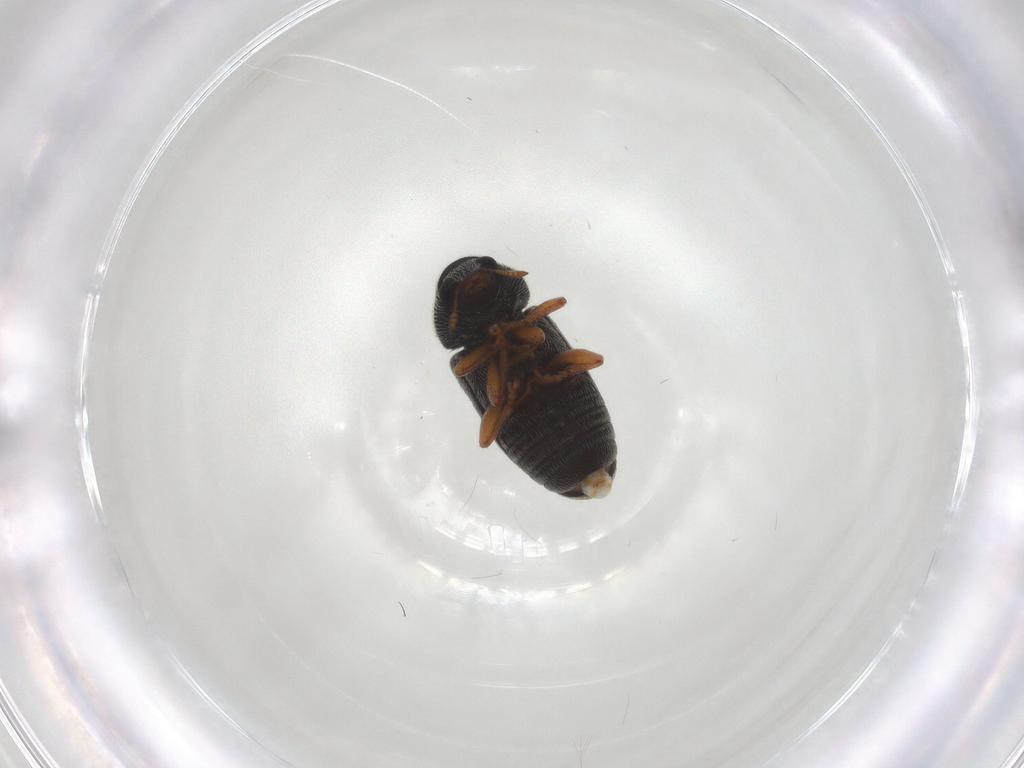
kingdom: Animalia
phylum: Arthropoda
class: Insecta
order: Coleoptera
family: Anthribidae
